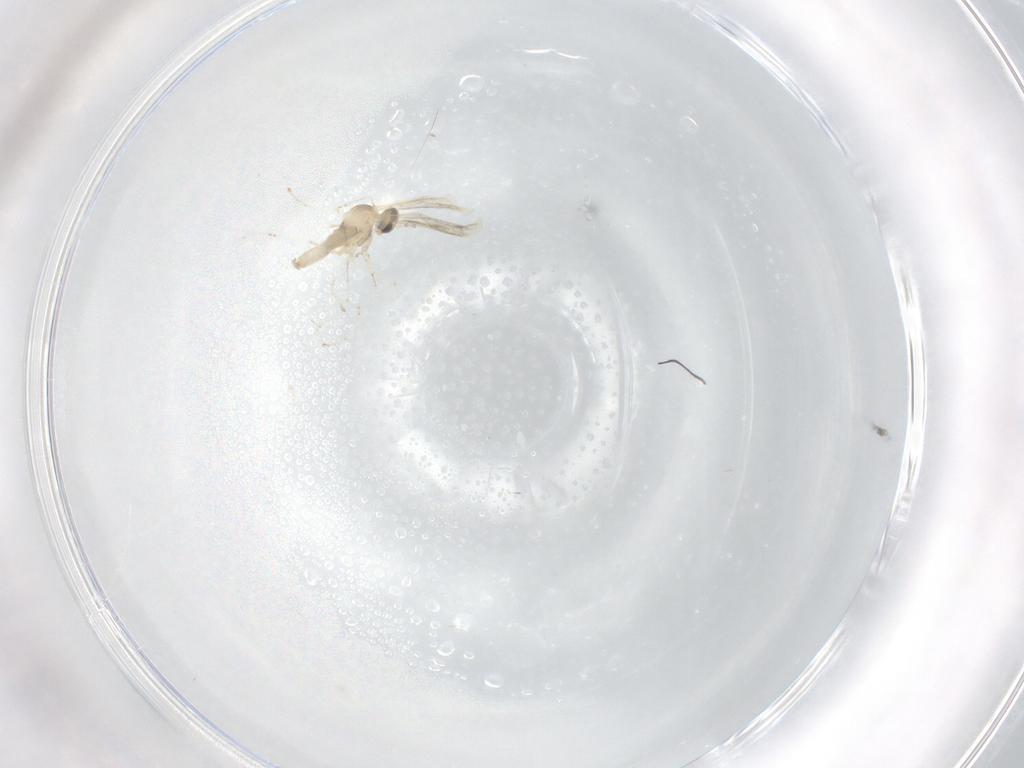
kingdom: Animalia
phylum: Arthropoda
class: Insecta
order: Diptera
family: Cecidomyiidae
